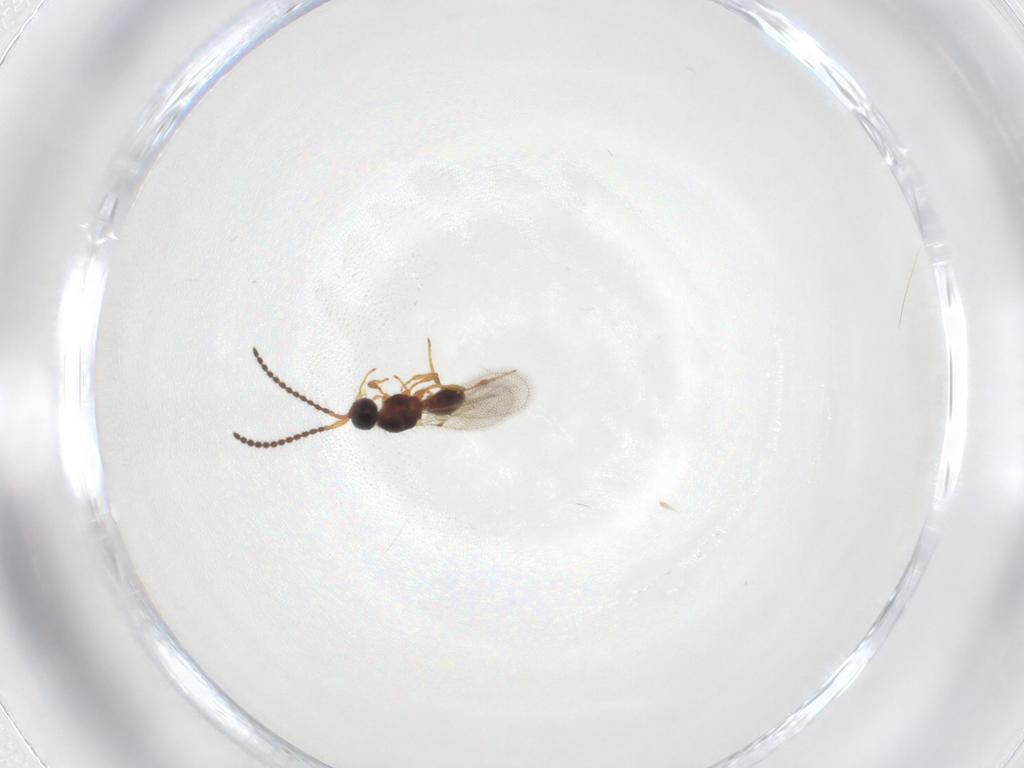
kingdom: Animalia
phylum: Arthropoda
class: Insecta
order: Hymenoptera
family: Diapriidae
